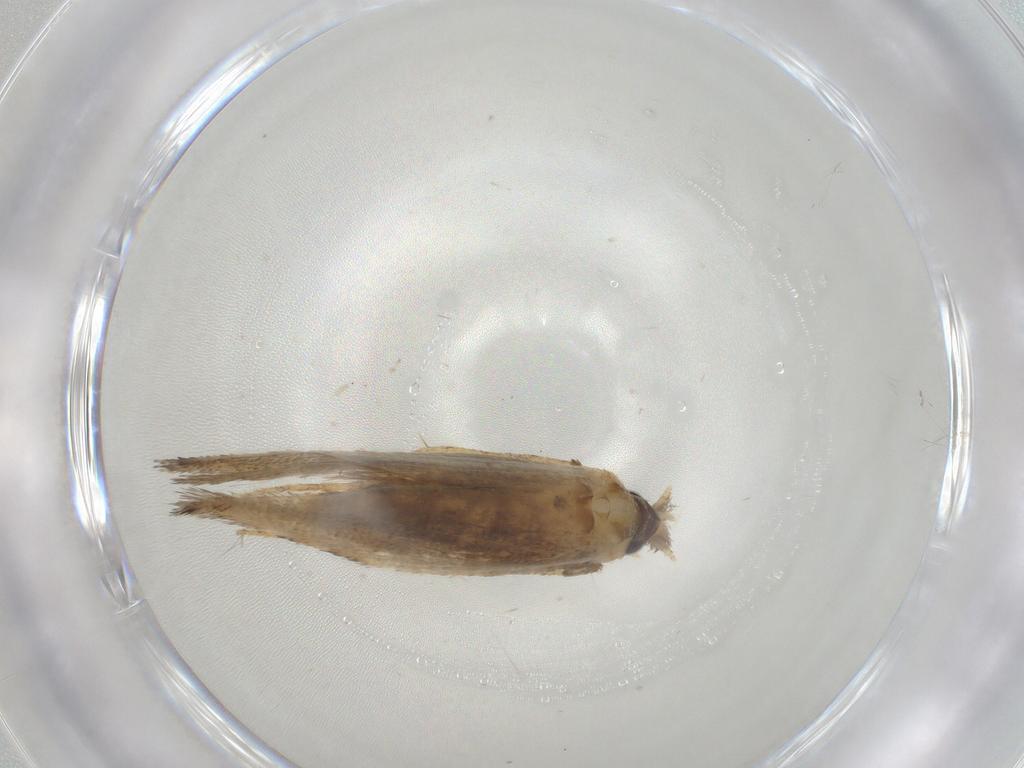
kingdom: Animalia
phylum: Arthropoda
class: Insecta
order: Lepidoptera
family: Nepticulidae
